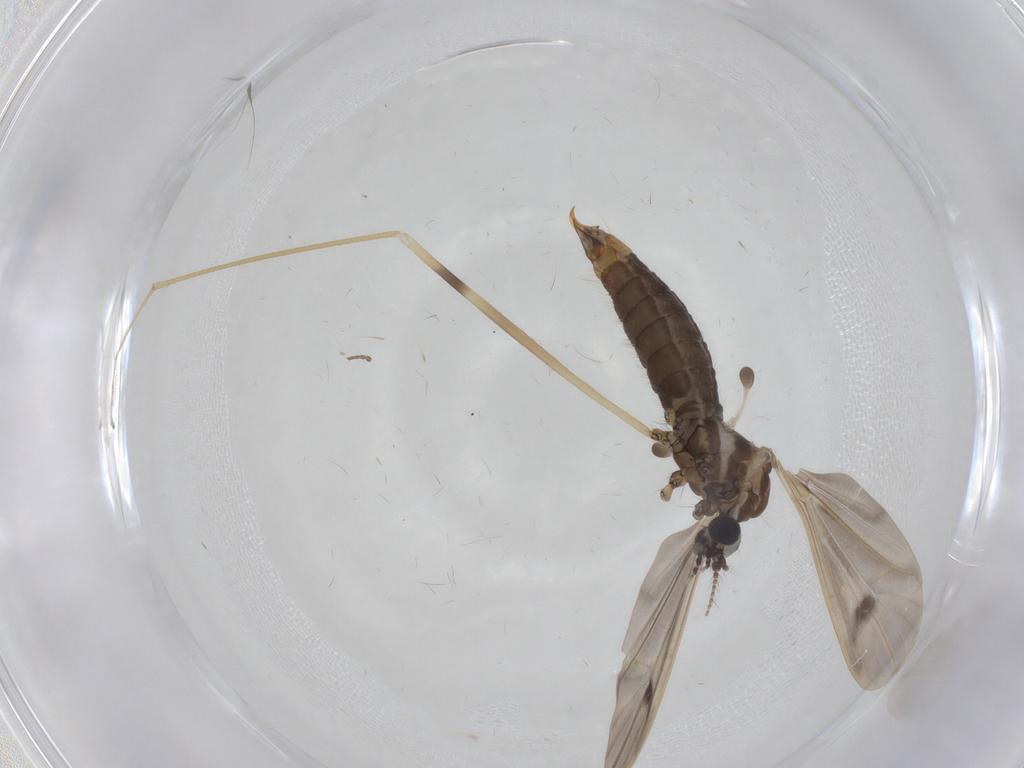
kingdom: Animalia
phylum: Arthropoda
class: Insecta
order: Diptera
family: Limoniidae
